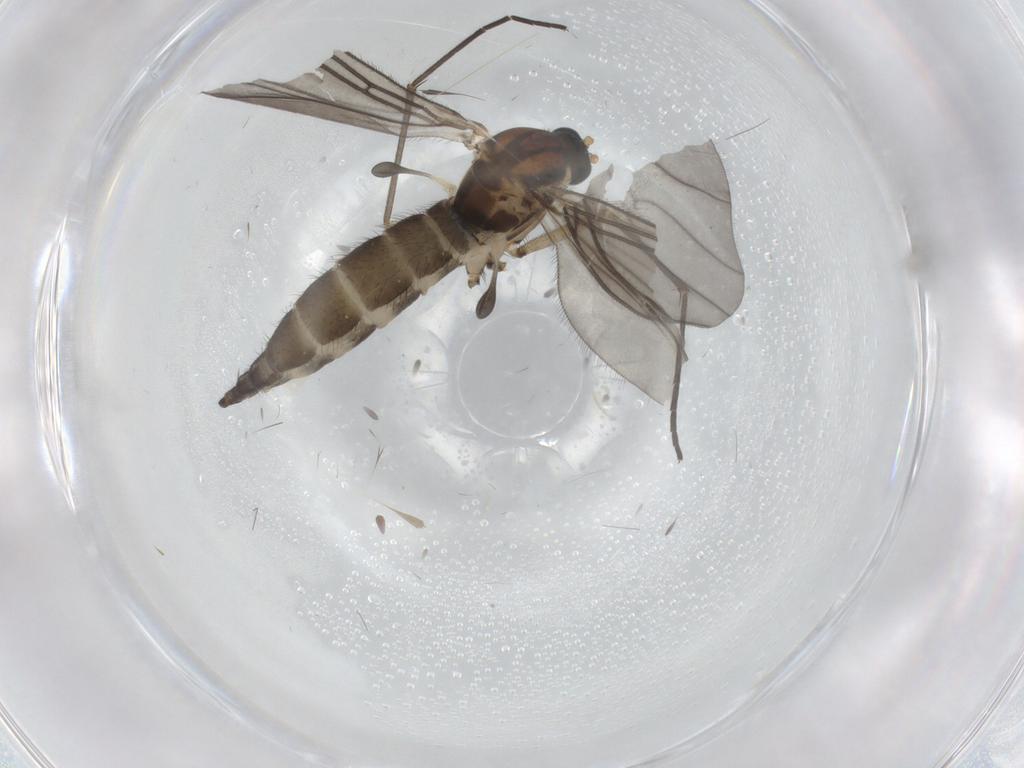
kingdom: Animalia
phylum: Arthropoda
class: Insecta
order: Diptera
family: Sciaridae
